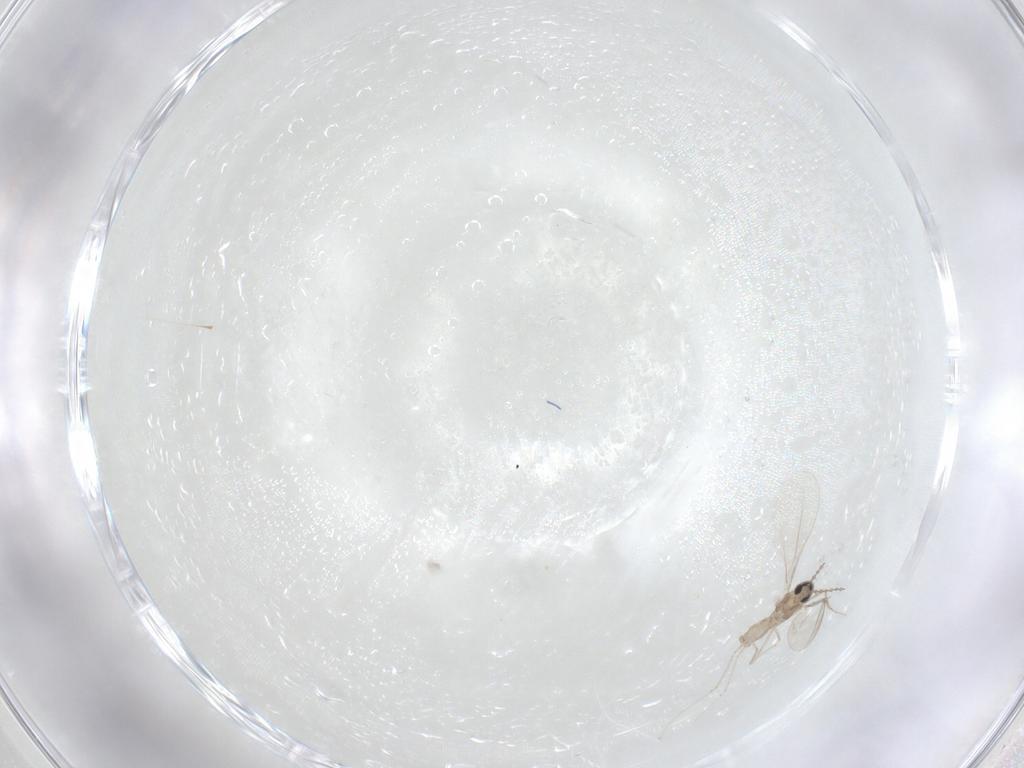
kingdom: Animalia
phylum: Arthropoda
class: Insecta
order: Diptera
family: Cecidomyiidae
